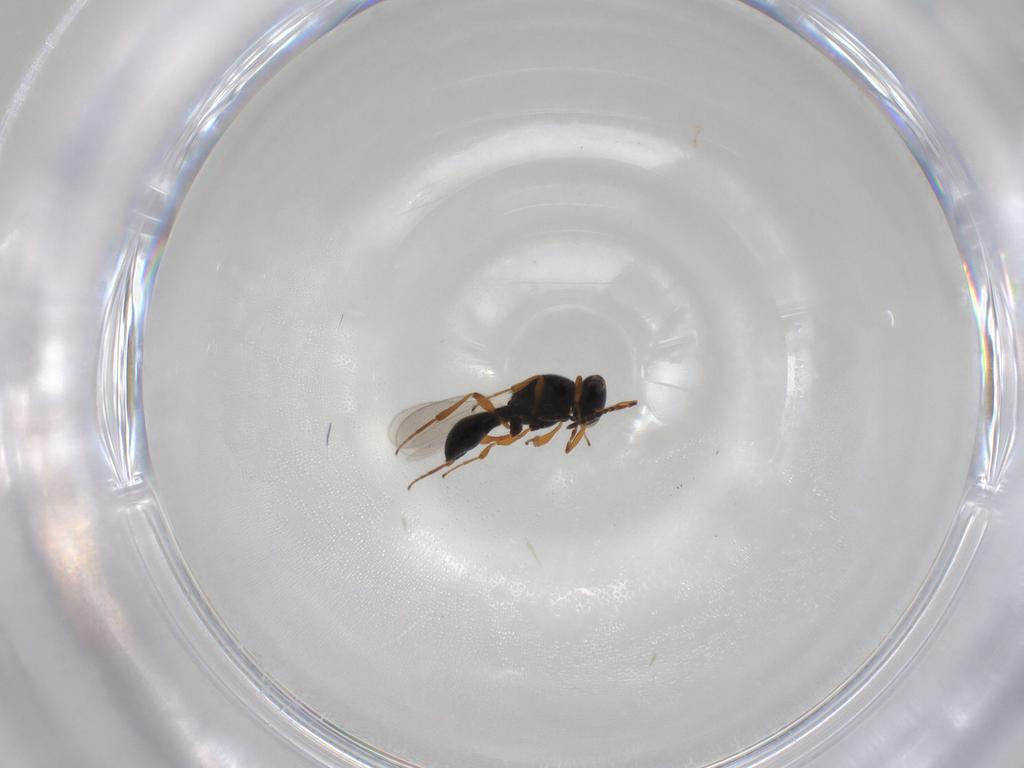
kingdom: Animalia
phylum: Arthropoda
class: Insecta
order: Hymenoptera
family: Platygastridae
